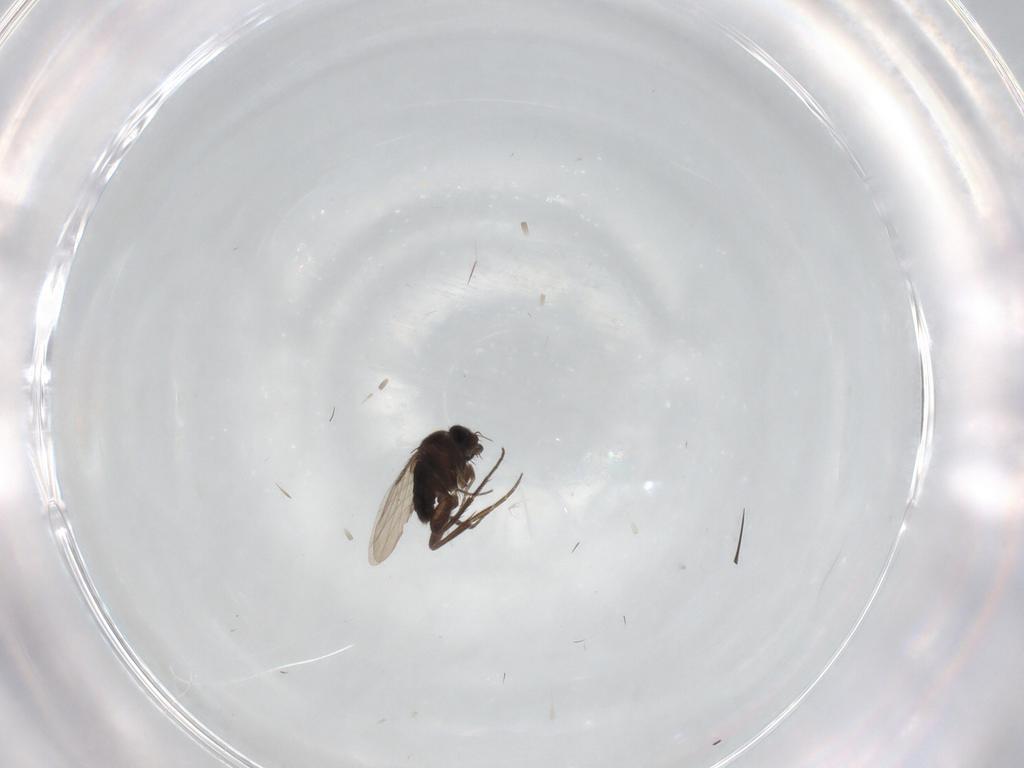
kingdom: Animalia
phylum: Arthropoda
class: Insecta
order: Diptera
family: Phoridae
